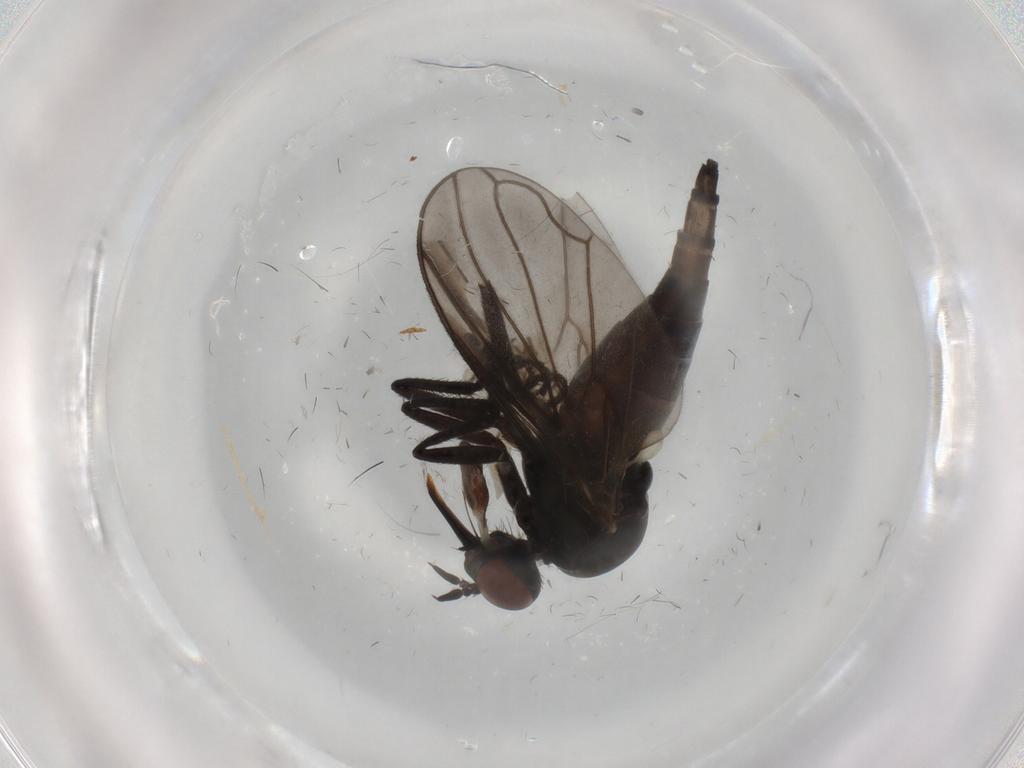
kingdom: Animalia
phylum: Arthropoda
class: Insecta
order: Diptera
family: Empididae
